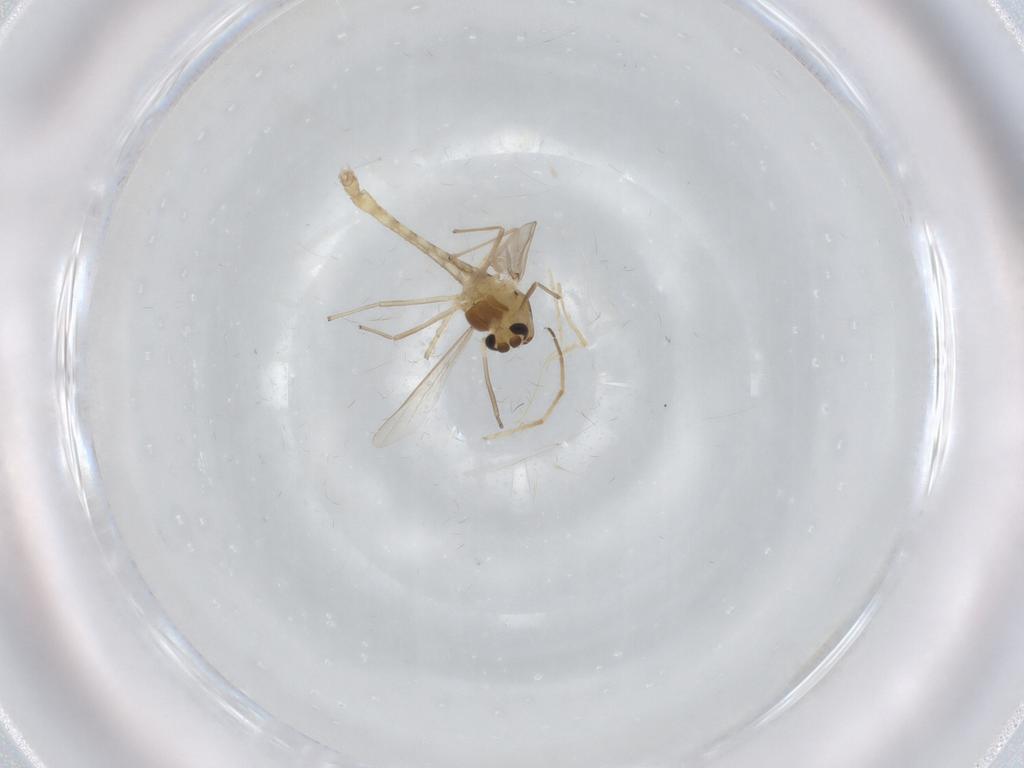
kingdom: Animalia
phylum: Arthropoda
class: Insecta
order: Diptera
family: Chironomidae
